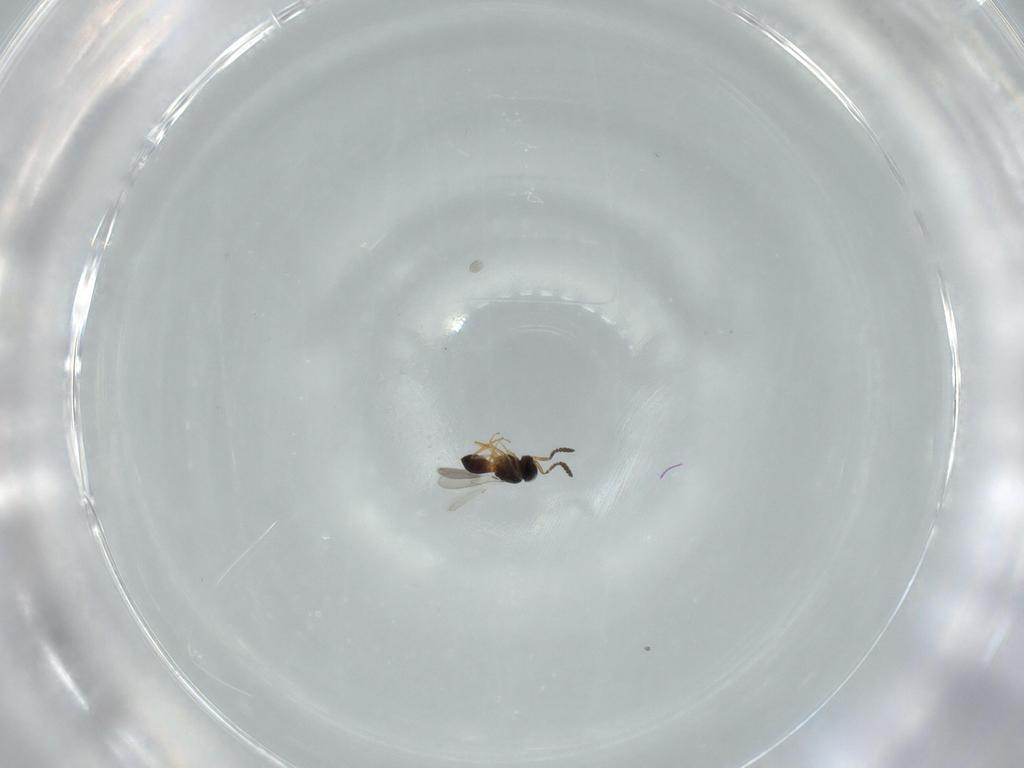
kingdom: Animalia
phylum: Arthropoda
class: Insecta
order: Hymenoptera
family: Scelionidae
